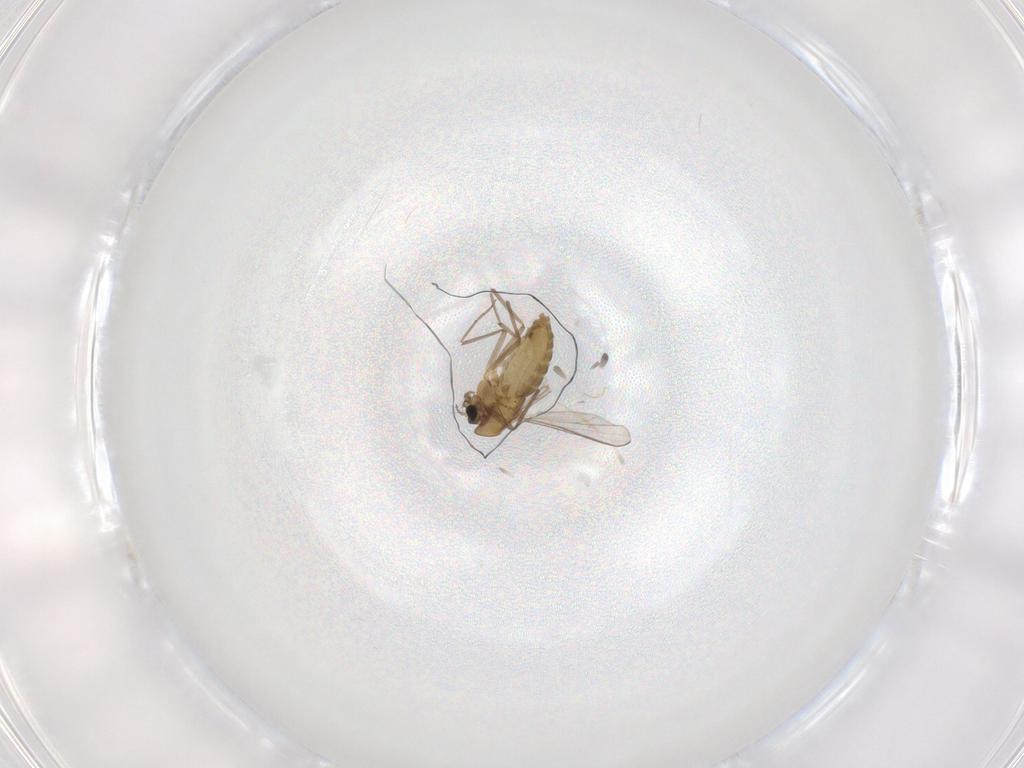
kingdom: Animalia
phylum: Arthropoda
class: Insecta
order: Diptera
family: Chironomidae
